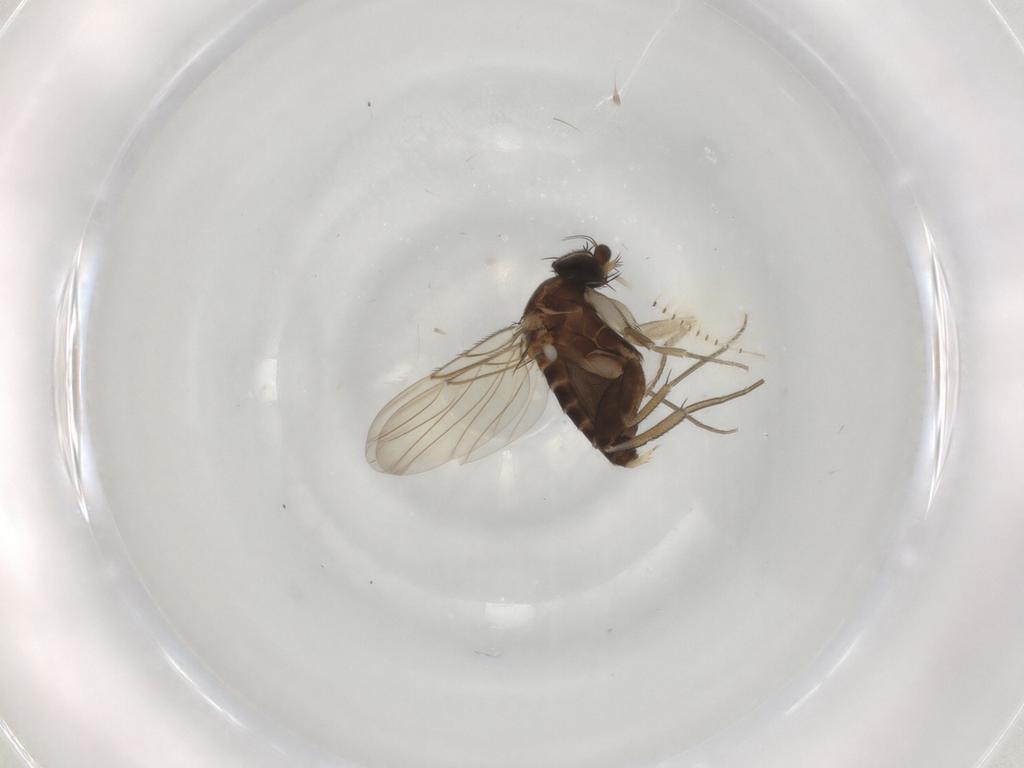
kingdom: Animalia
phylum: Arthropoda
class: Insecta
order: Diptera
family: Phoridae
